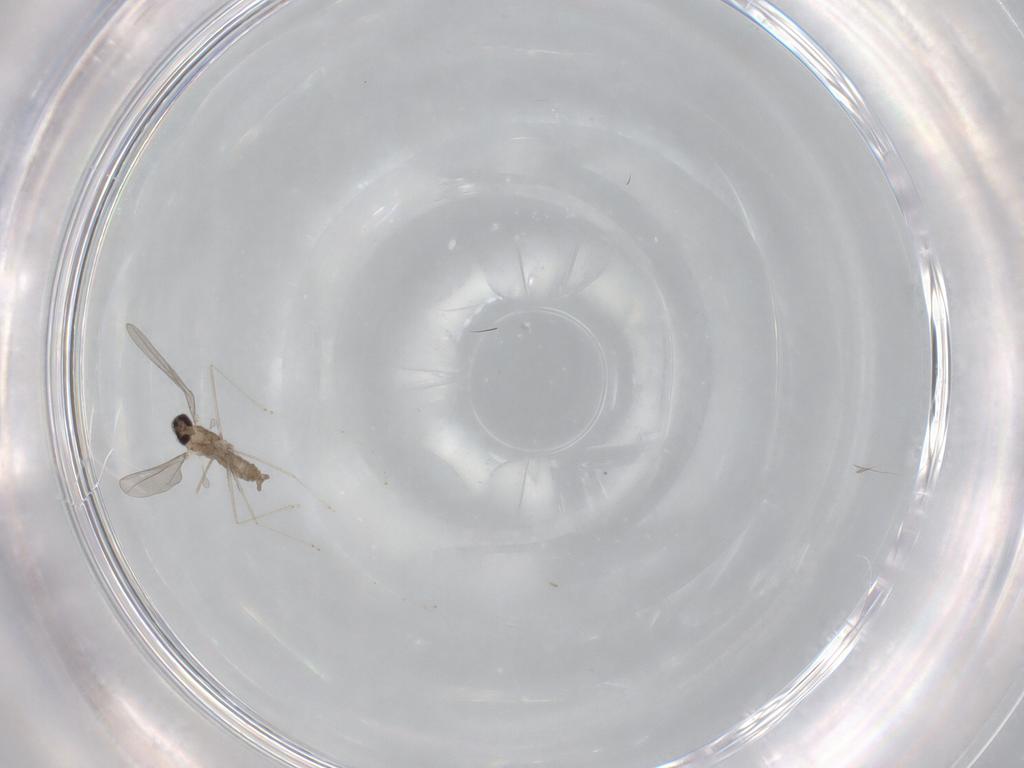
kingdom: Animalia
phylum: Arthropoda
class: Insecta
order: Diptera
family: Cecidomyiidae
